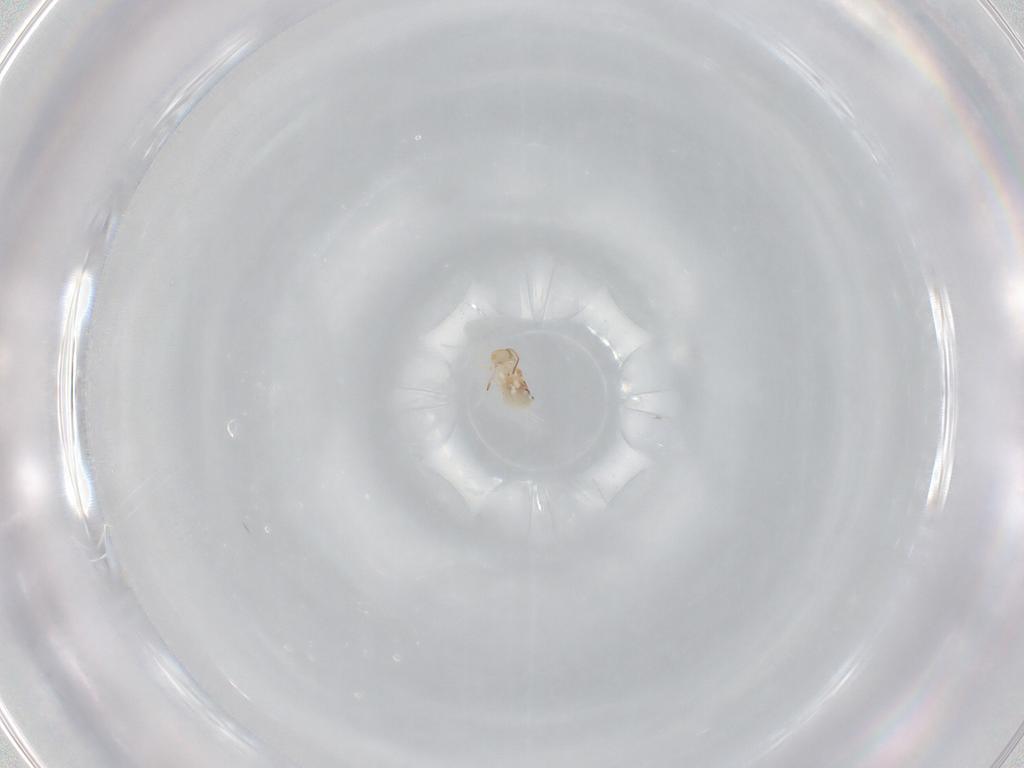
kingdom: Animalia
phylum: Arthropoda
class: Collembola
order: Symphypleona
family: Bourletiellidae
